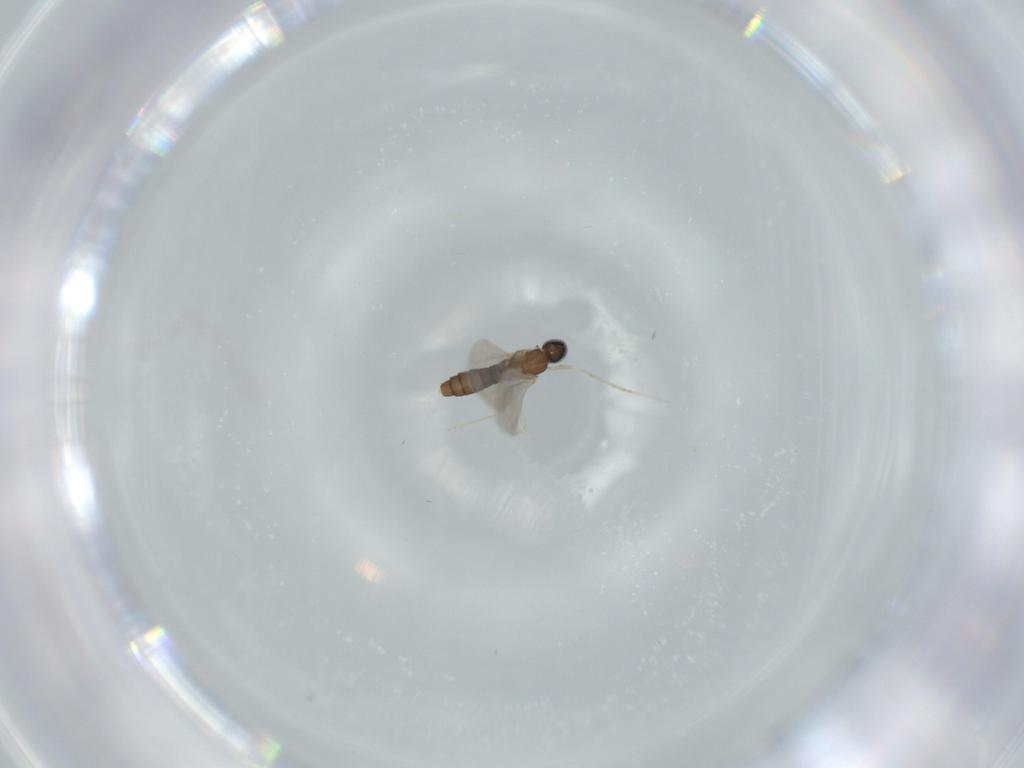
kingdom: Animalia
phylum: Arthropoda
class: Insecta
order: Diptera
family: Cecidomyiidae
